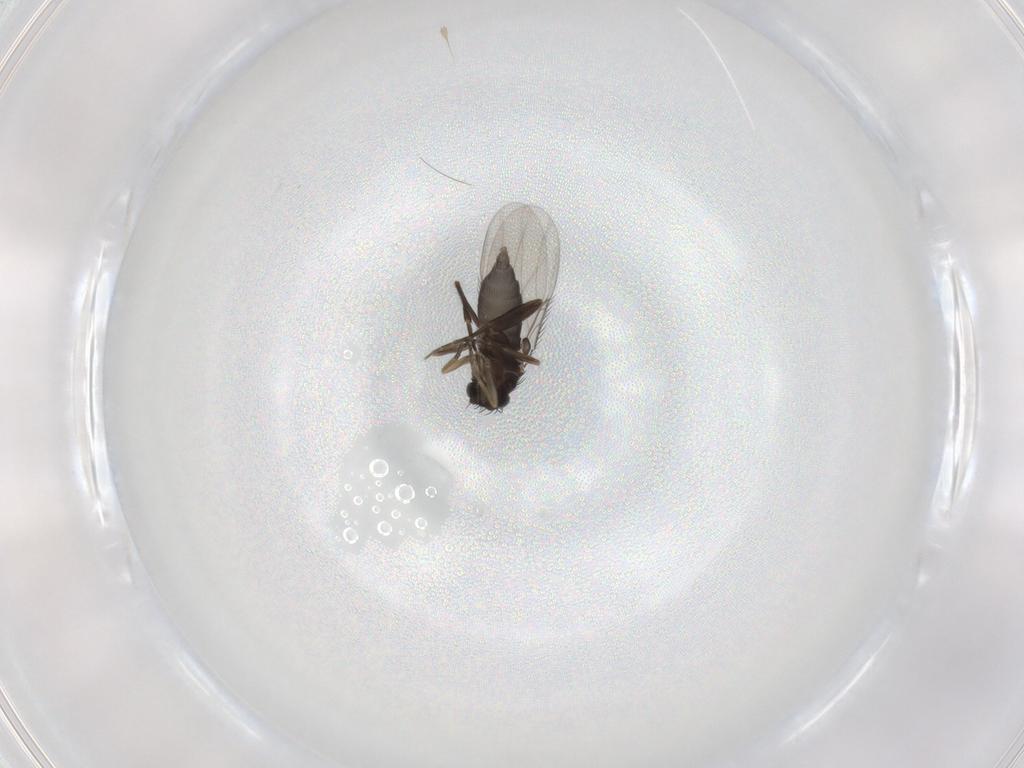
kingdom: Animalia
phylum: Arthropoda
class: Insecta
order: Diptera
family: Phoridae
